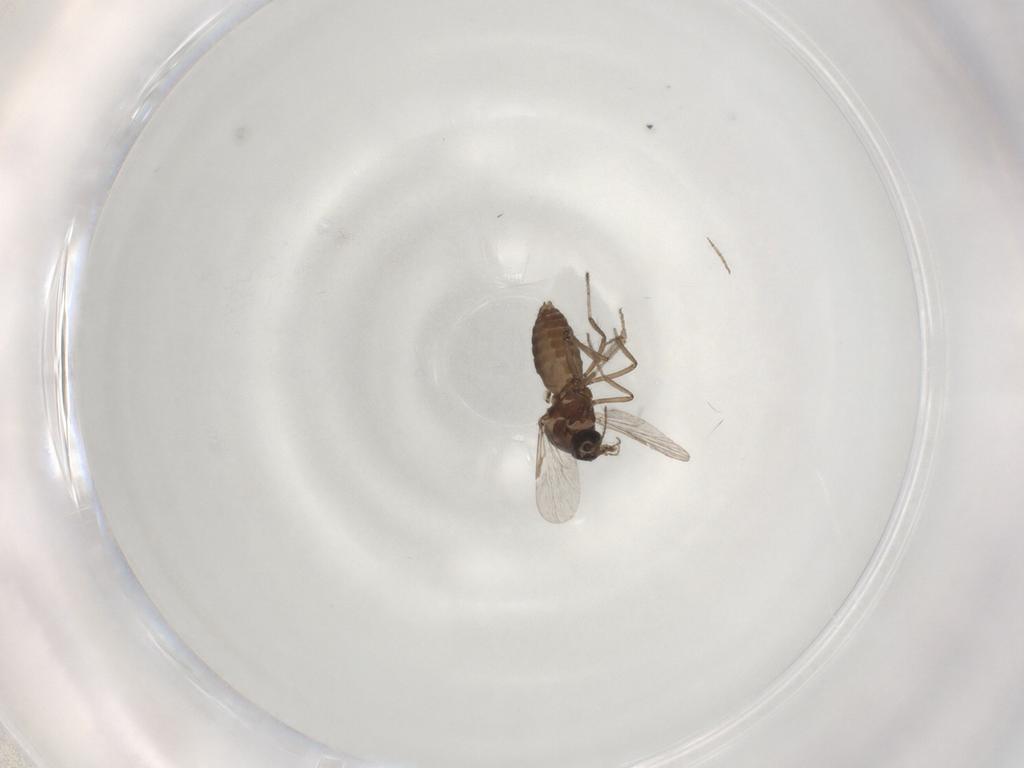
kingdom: Animalia
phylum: Arthropoda
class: Insecta
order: Diptera
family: Ceratopogonidae
